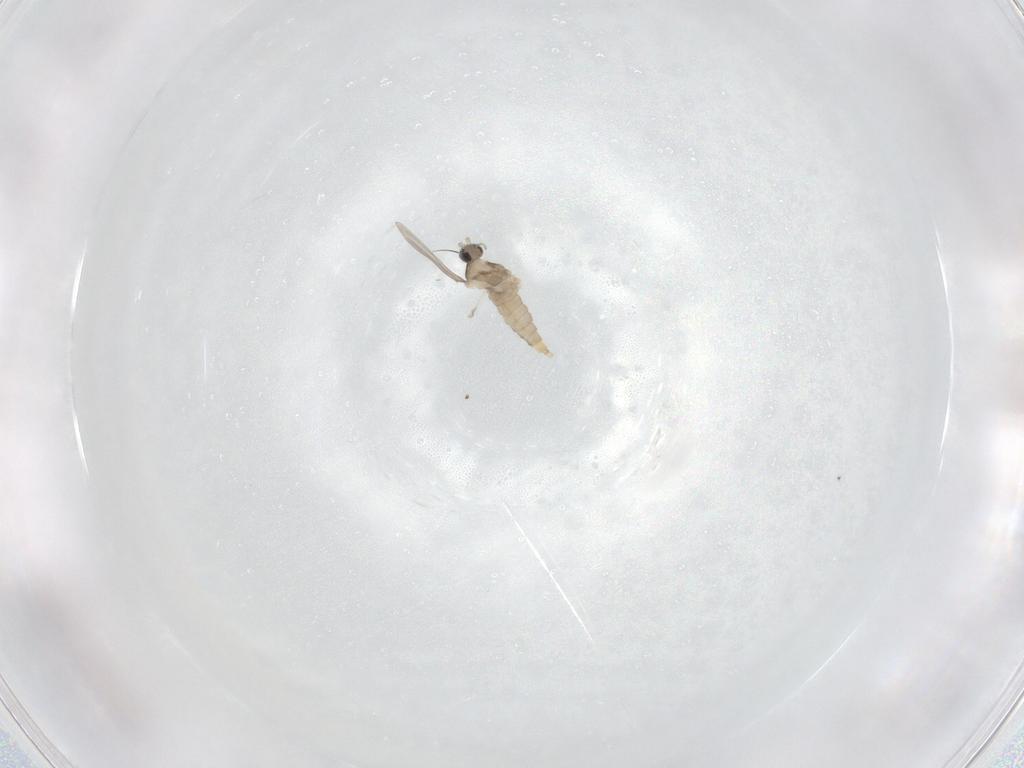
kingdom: Animalia
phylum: Arthropoda
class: Insecta
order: Diptera
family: Cecidomyiidae
